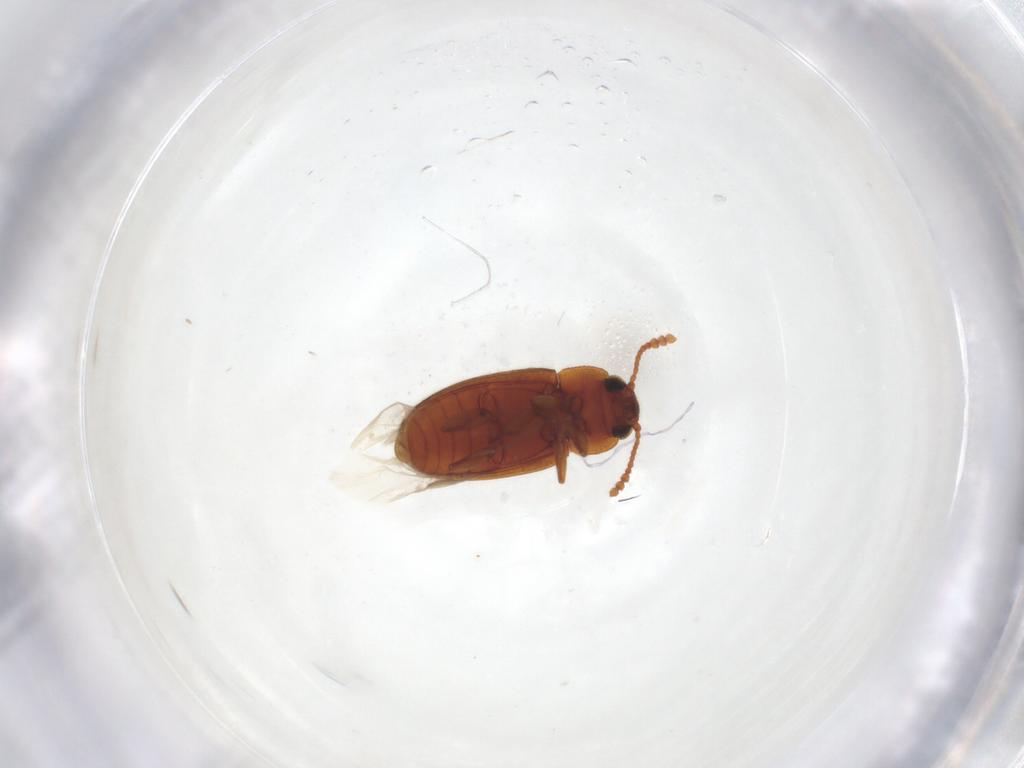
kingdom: Animalia
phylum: Arthropoda
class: Insecta
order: Coleoptera
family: Erotylidae
